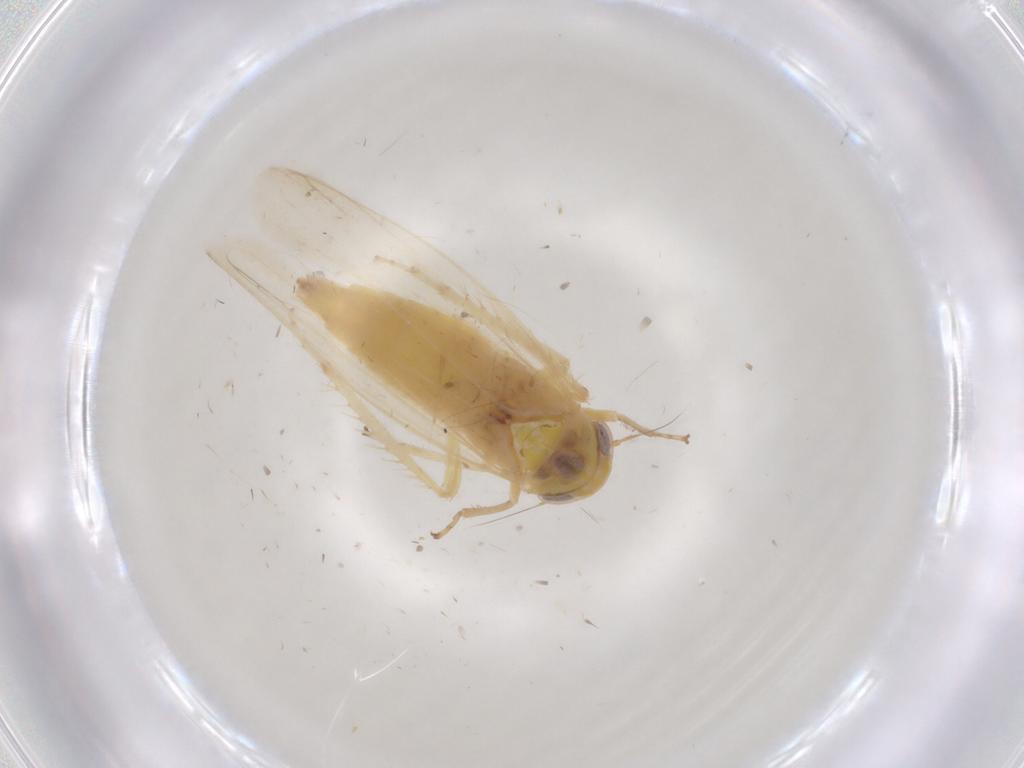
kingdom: Animalia
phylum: Arthropoda
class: Insecta
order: Hemiptera
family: Cicadellidae
